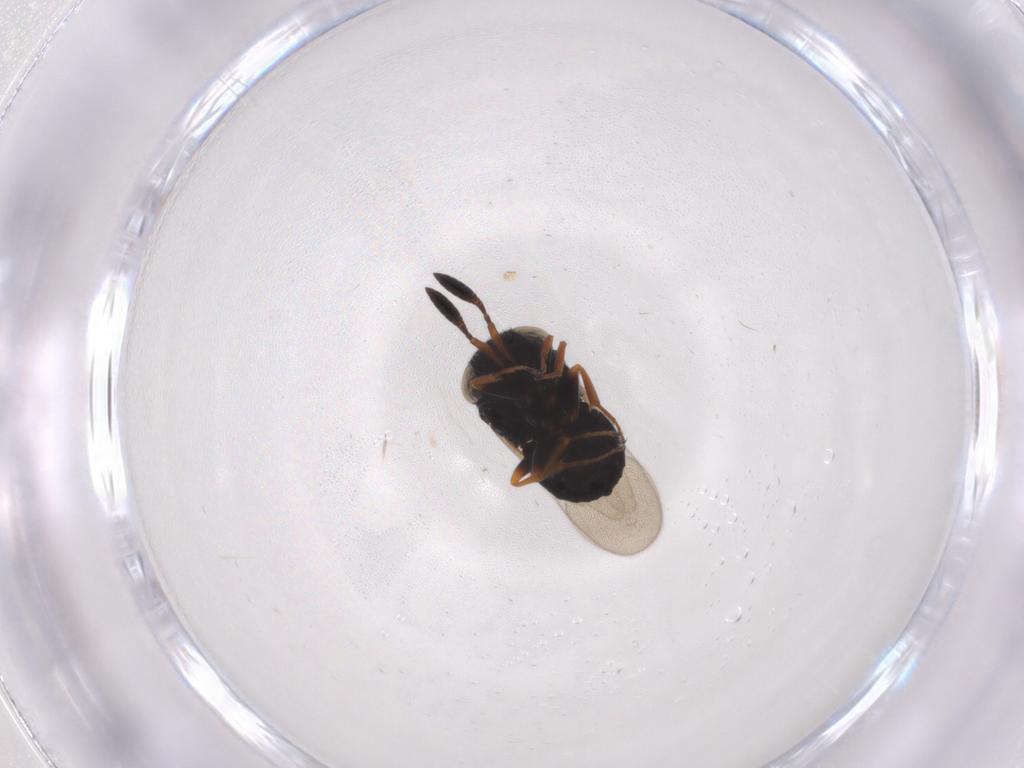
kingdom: Animalia
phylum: Arthropoda
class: Insecta
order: Hymenoptera
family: Scelionidae
